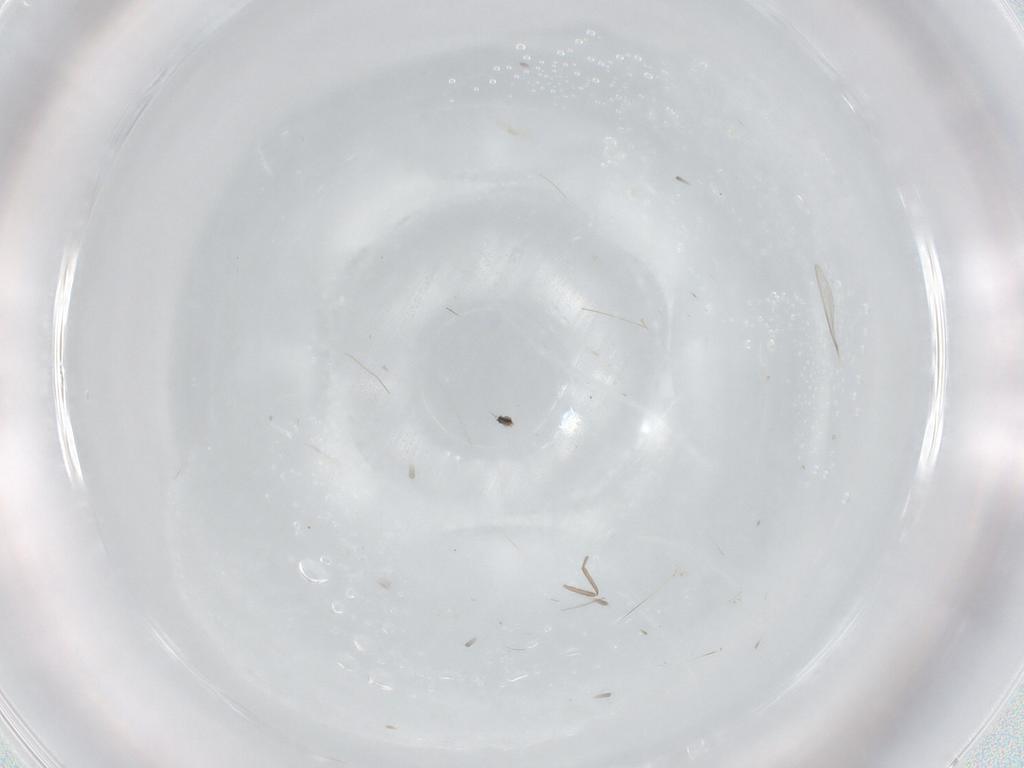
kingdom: Animalia
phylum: Arthropoda
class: Insecta
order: Diptera
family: Cecidomyiidae
